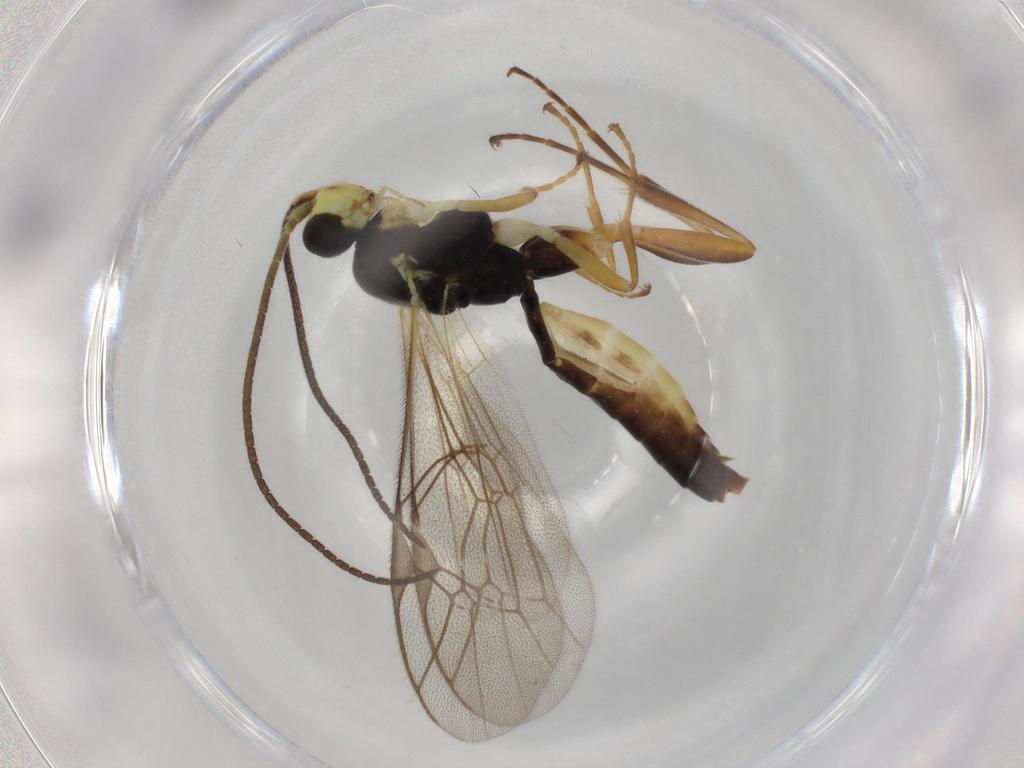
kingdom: Animalia
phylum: Arthropoda
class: Insecta
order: Hymenoptera
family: Ichneumonidae
